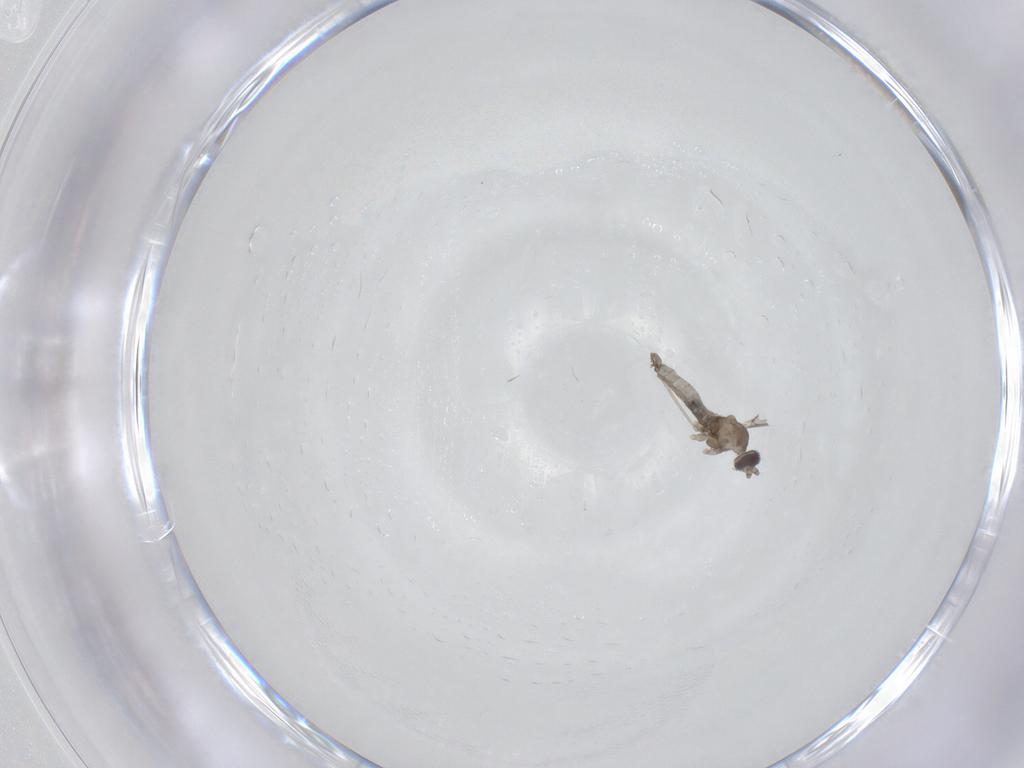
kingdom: Animalia
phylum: Arthropoda
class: Insecta
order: Diptera
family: Cecidomyiidae
